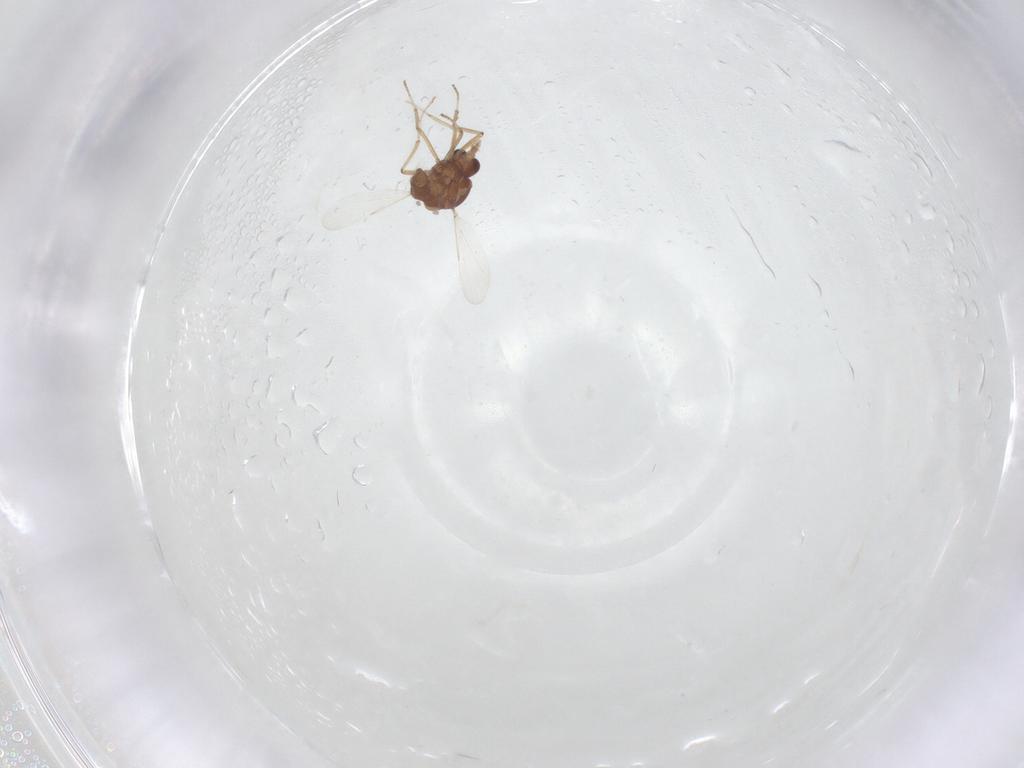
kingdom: Animalia
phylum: Arthropoda
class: Insecta
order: Diptera
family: Ceratopogonidae
